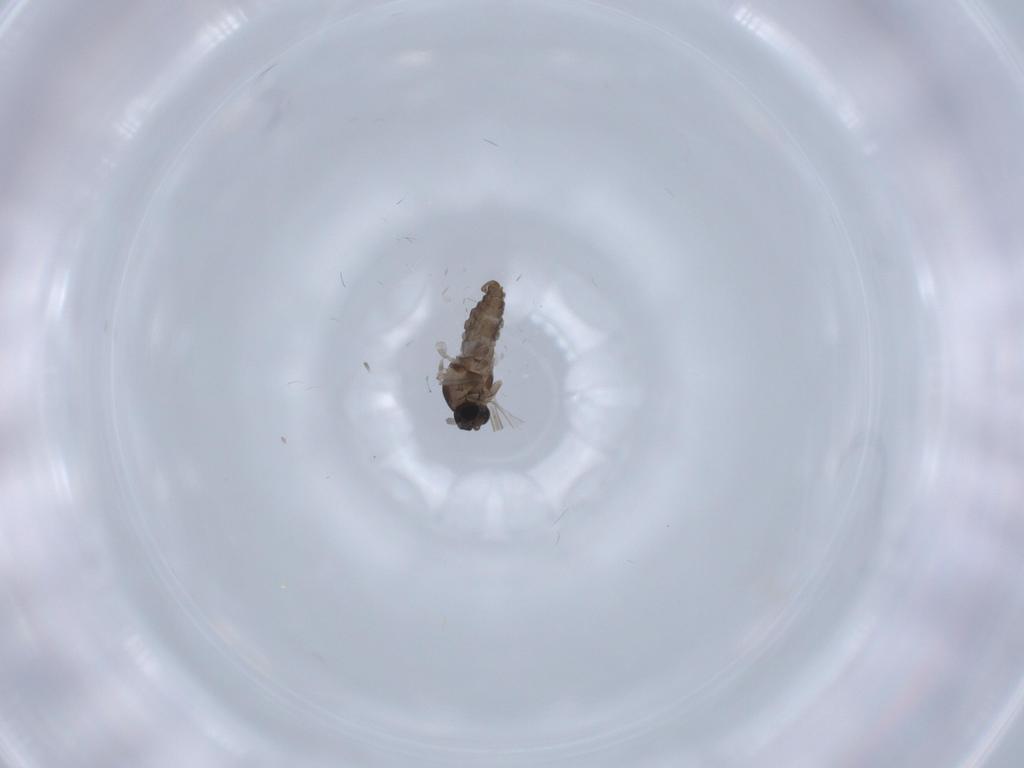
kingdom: Animalia
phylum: Arthropoda
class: Insecta
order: Diptera
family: Cecidomyiidae
